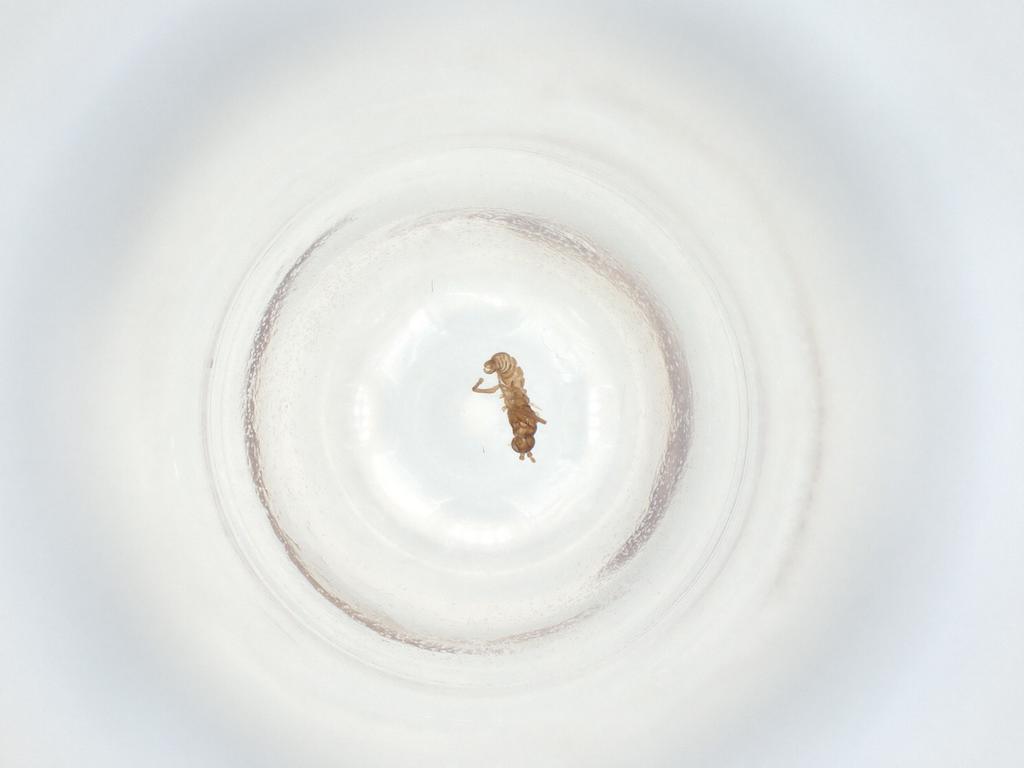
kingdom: Animalia
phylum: Arthropoda
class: Insecta
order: Diptera
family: Sciaridae
